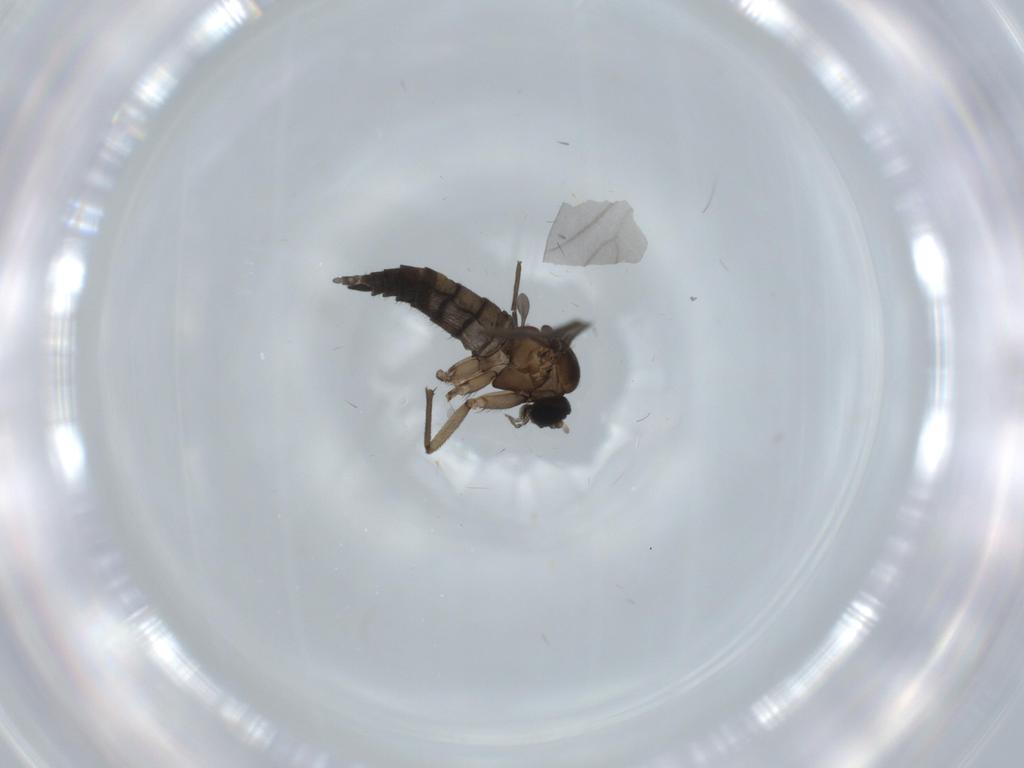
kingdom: Animalia
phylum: Arthropoda
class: Insecta
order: Diptera
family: Sciaridae
